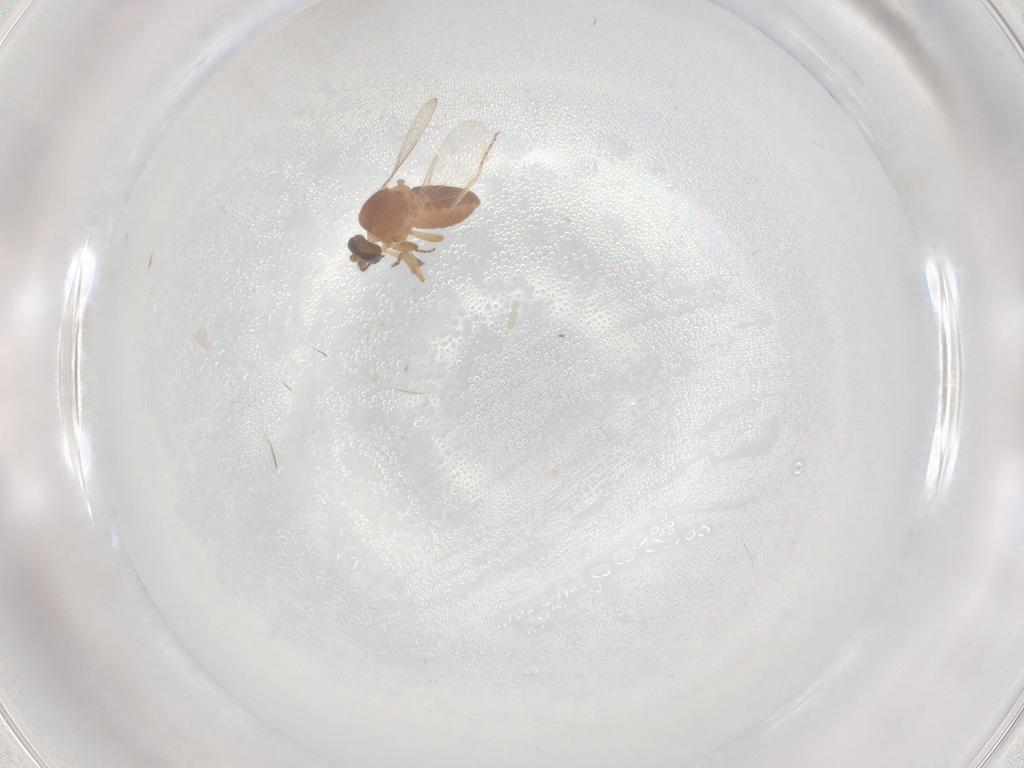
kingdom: Animalia
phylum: Arthropoda
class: Insecta
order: Diptera
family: Ceratopogonidae
